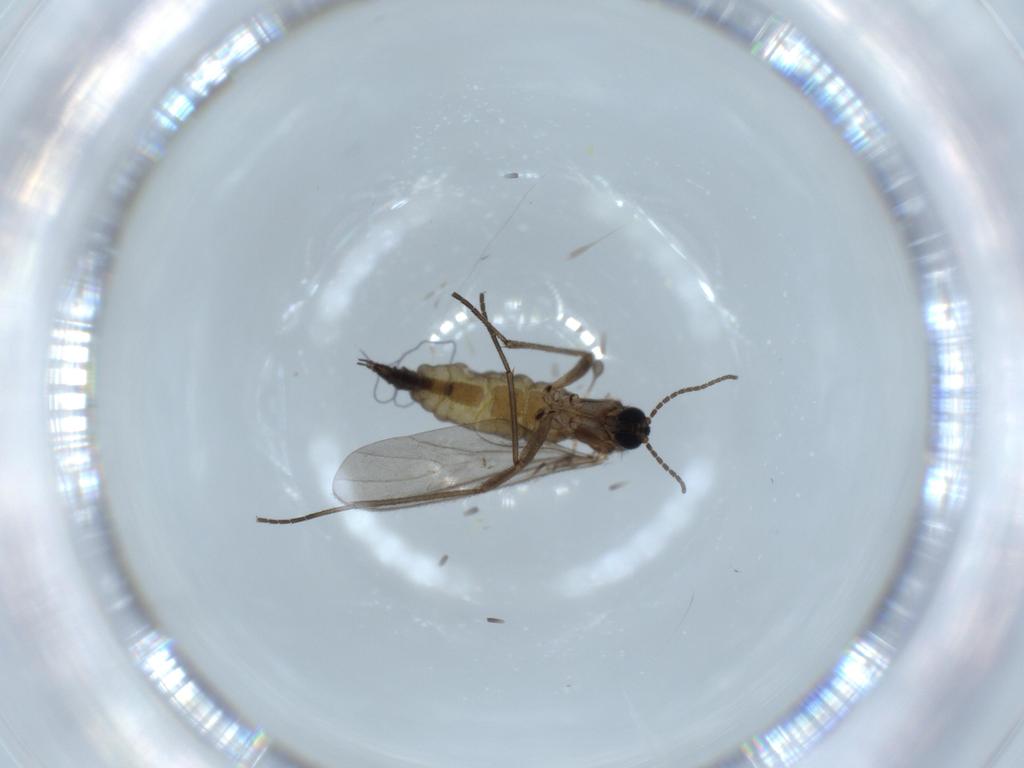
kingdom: Animalia
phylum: Arthropoda
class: Insecta
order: Diptera
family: Sciaridae
